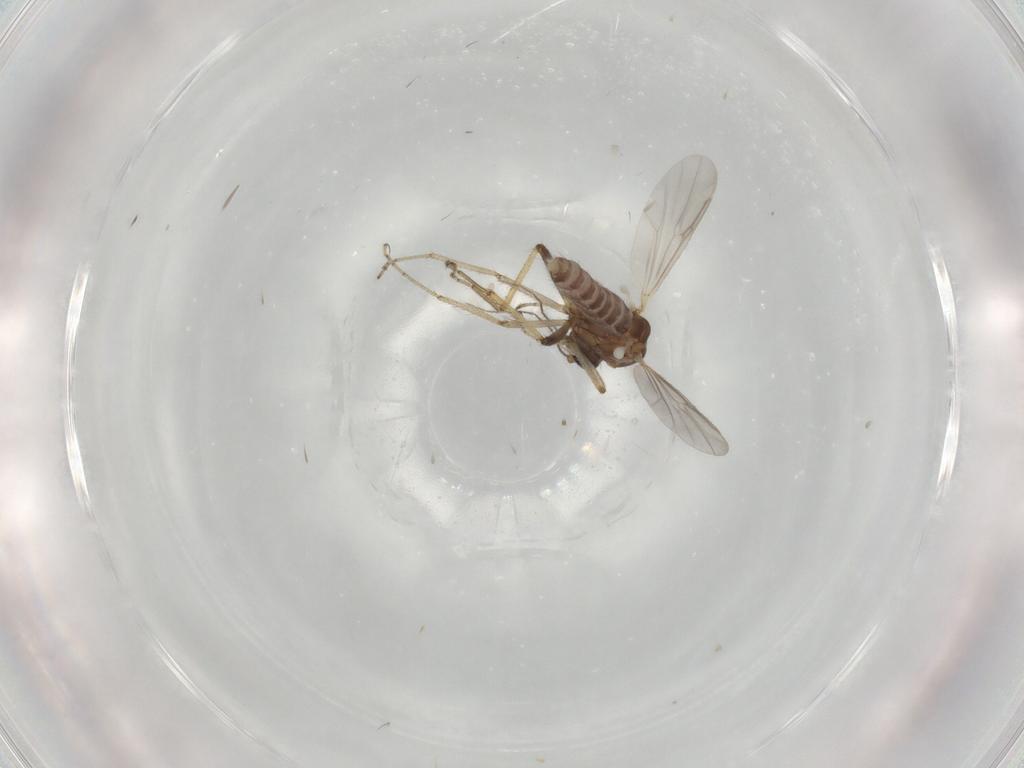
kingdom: Animalia
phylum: Arthropoda
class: Insecta
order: Diptera
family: Ceratopogonidae
